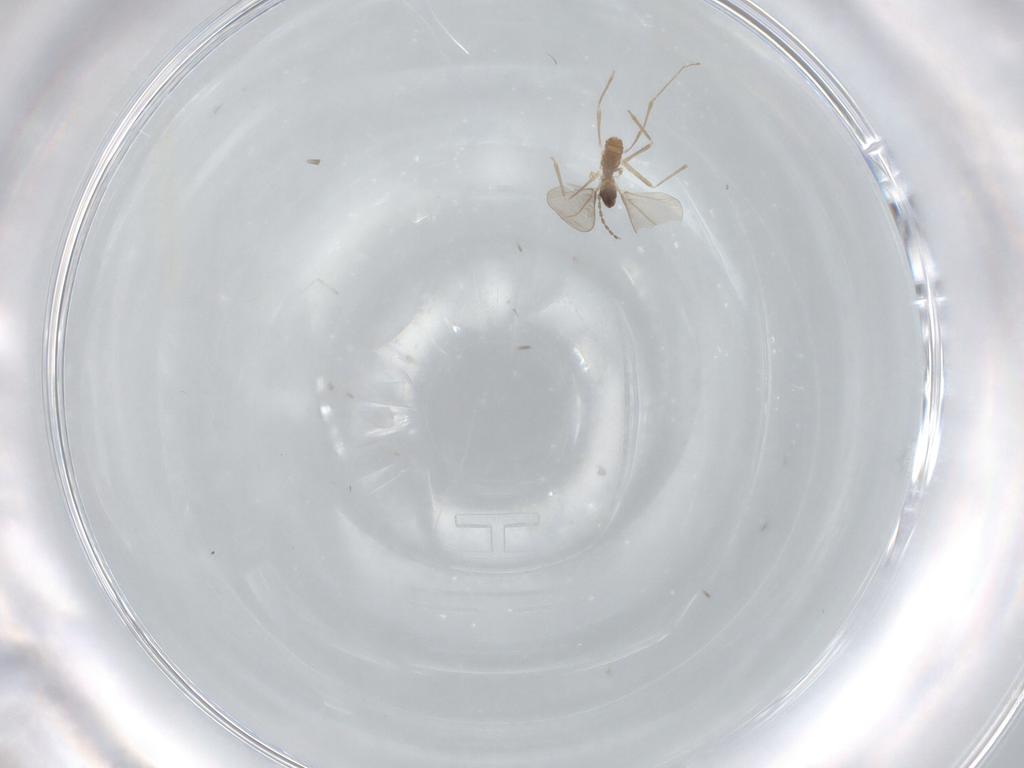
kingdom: Animalia
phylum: Arthropoda
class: Insecta
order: Diptera
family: Cecidomyiidae
